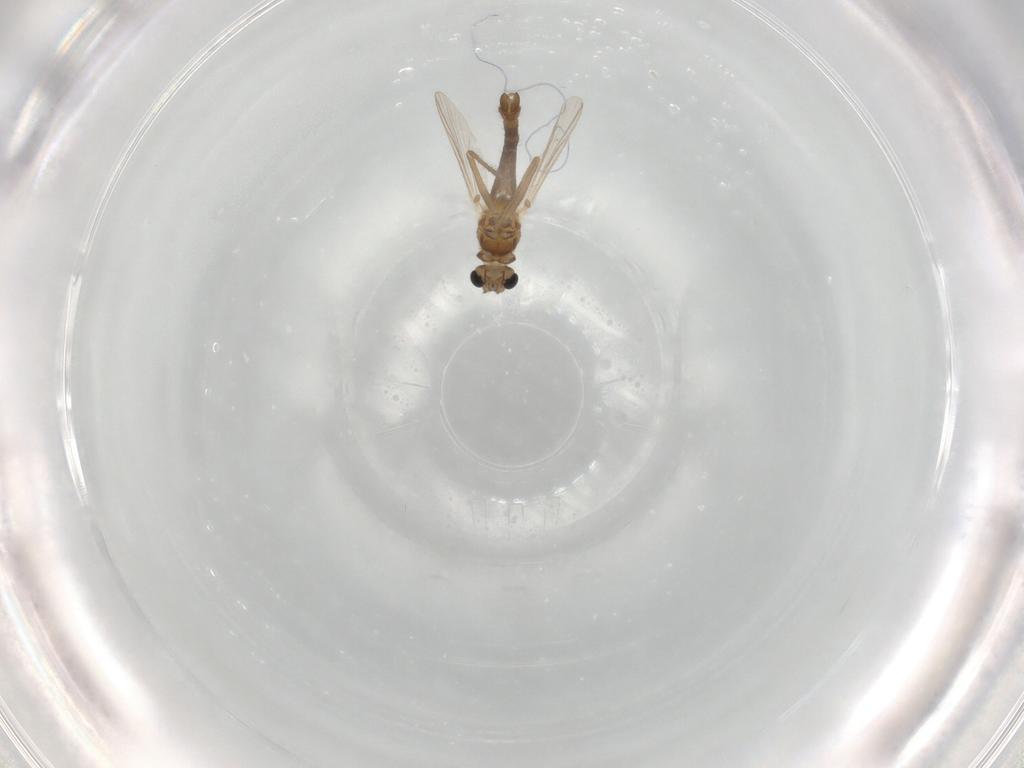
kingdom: Animalia
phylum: Arthropoda
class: Insecta
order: Diptera
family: Chironomidae
